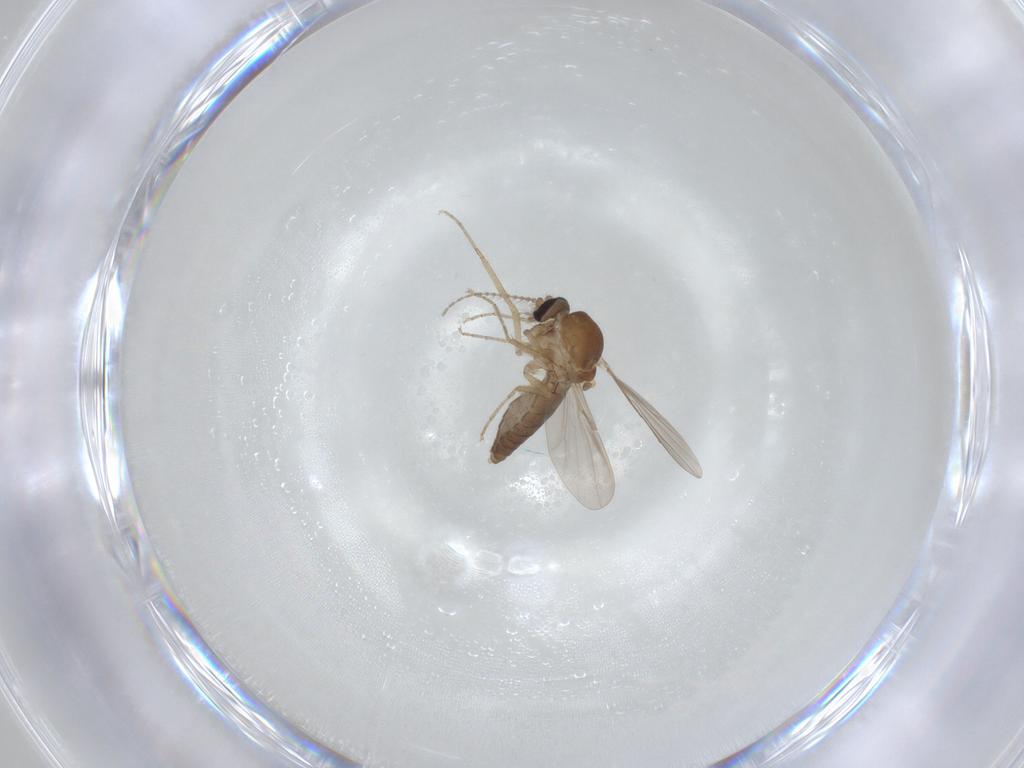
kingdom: Animalia
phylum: Arthropoda
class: Insecta
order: Diptera
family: Ceratopogonidae
